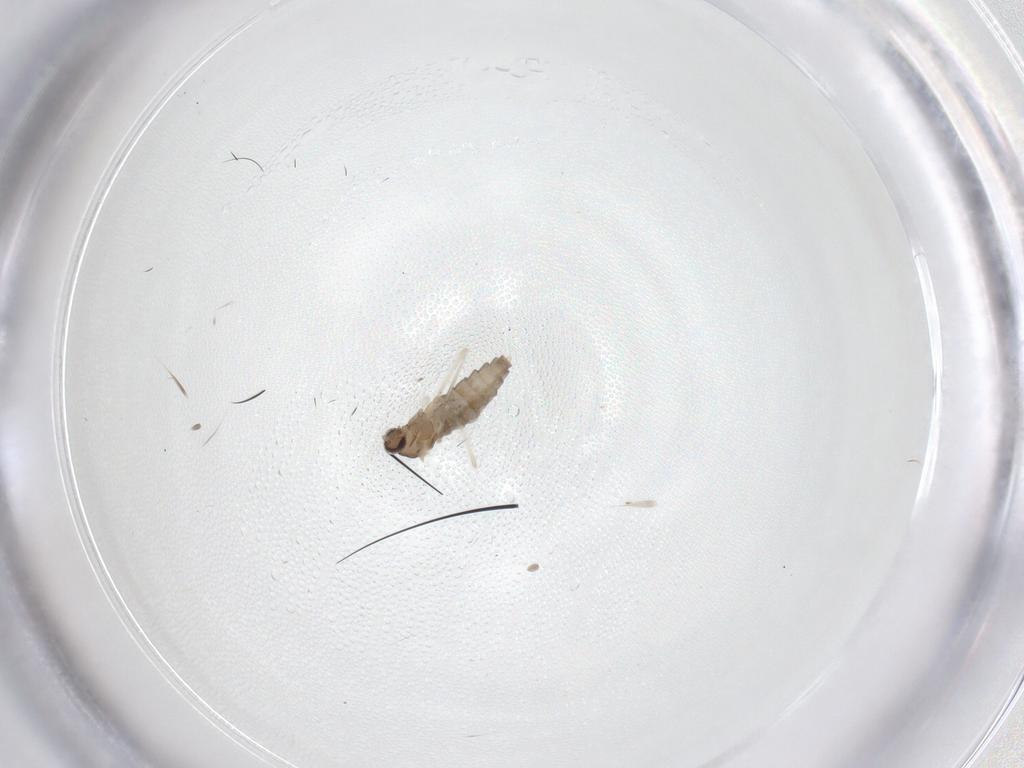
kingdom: Animalia
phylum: Arthropoda
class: Insecta
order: Diptera
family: Cecidomyiidae
